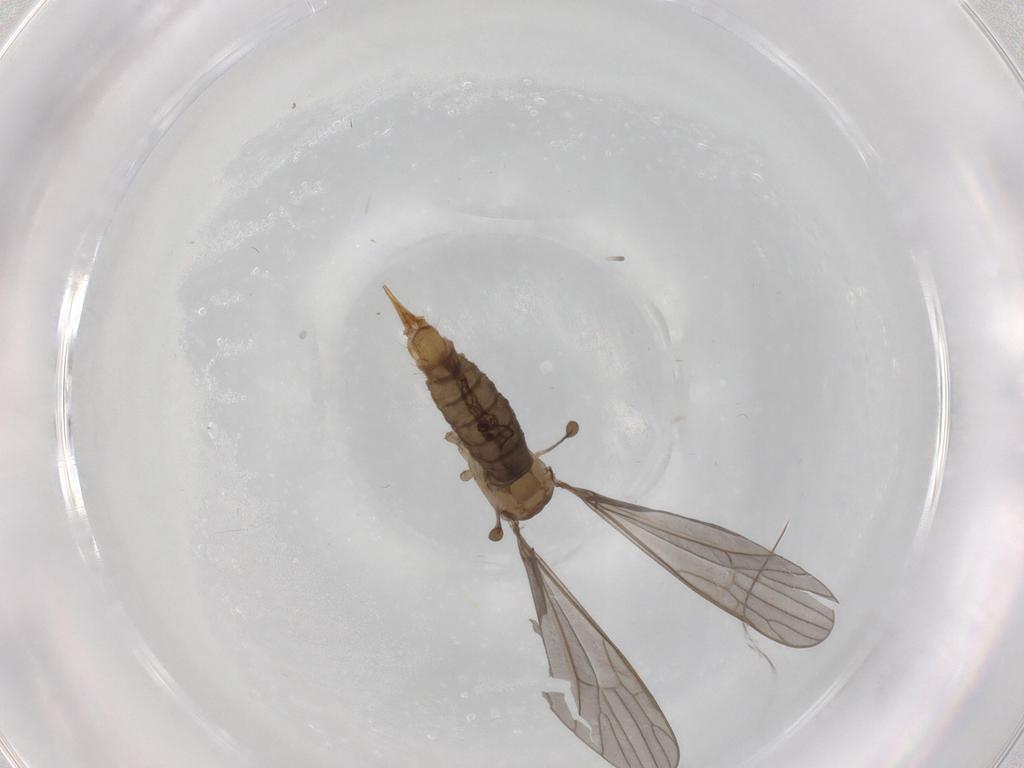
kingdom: Animalia
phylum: Arthropoda
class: Insecta
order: Diptera
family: Limoniidae
